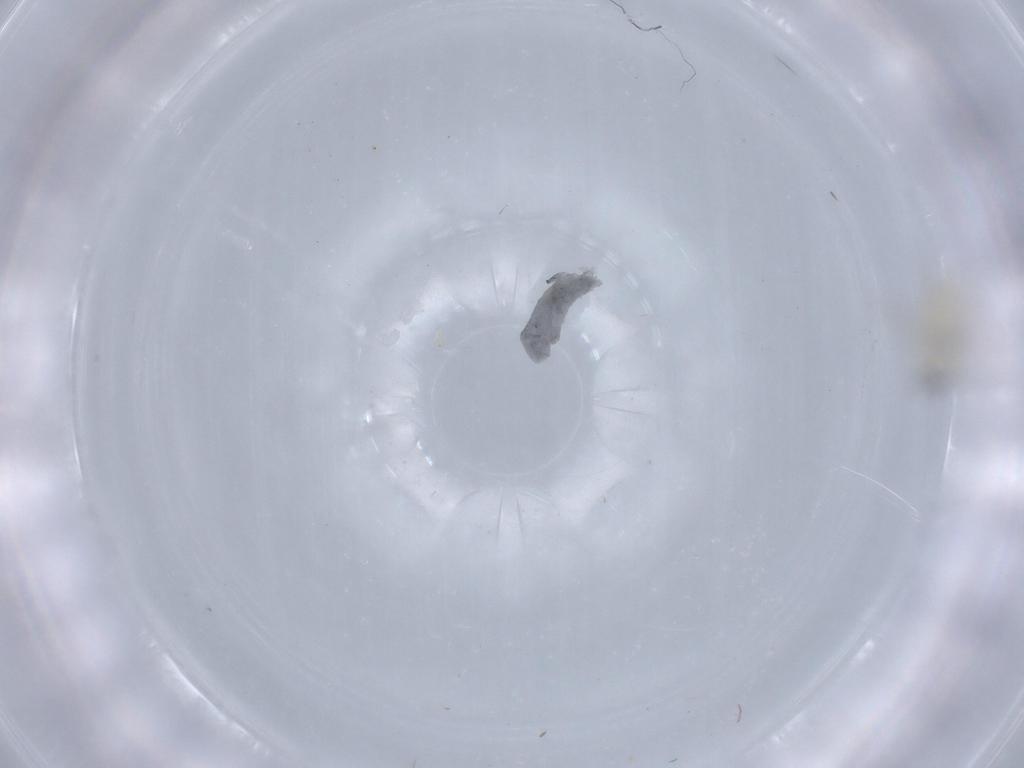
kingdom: Animalia
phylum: Arthropoda
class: Insecta
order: Diptera
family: Cecidomyiidae
